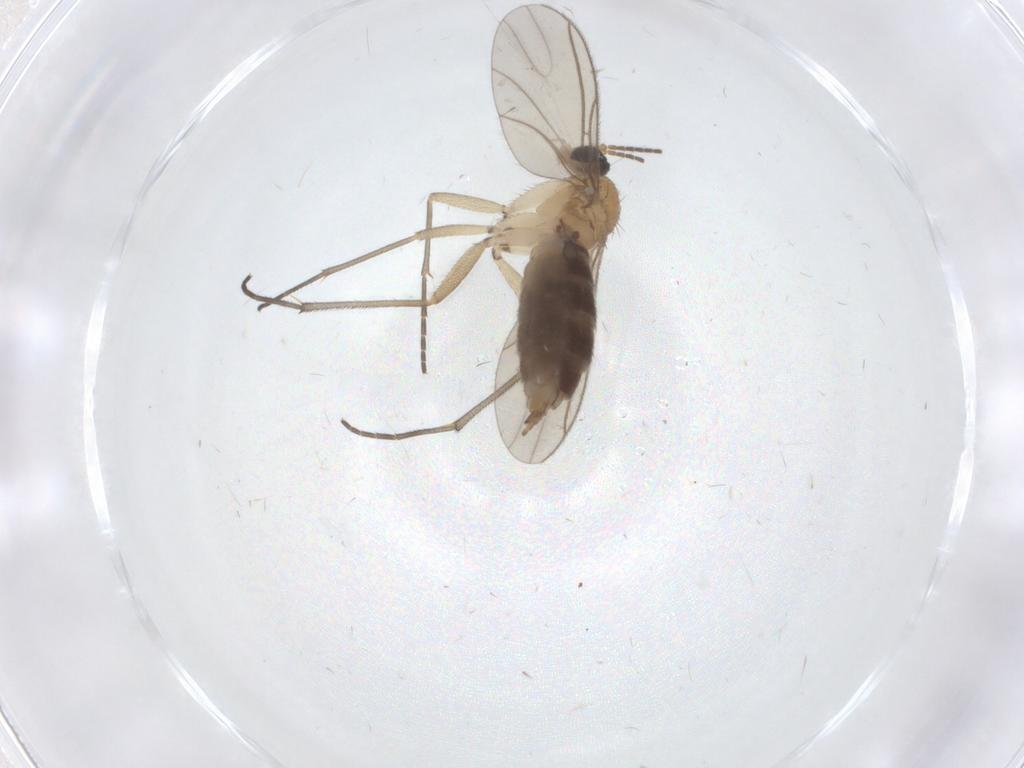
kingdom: Animalia
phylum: Arthropoda
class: Insecta
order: Diptera
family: Sciaridae
